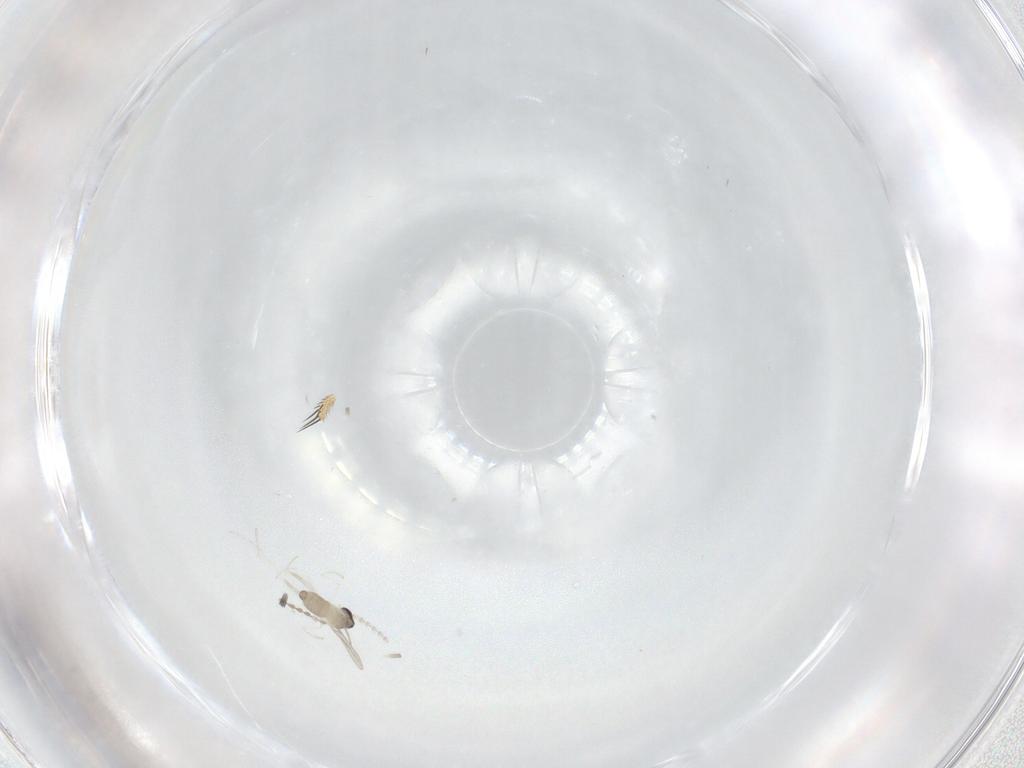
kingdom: Animalia
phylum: Arthropoda
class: Insecta
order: Diptera
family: Cecidomyiidae
